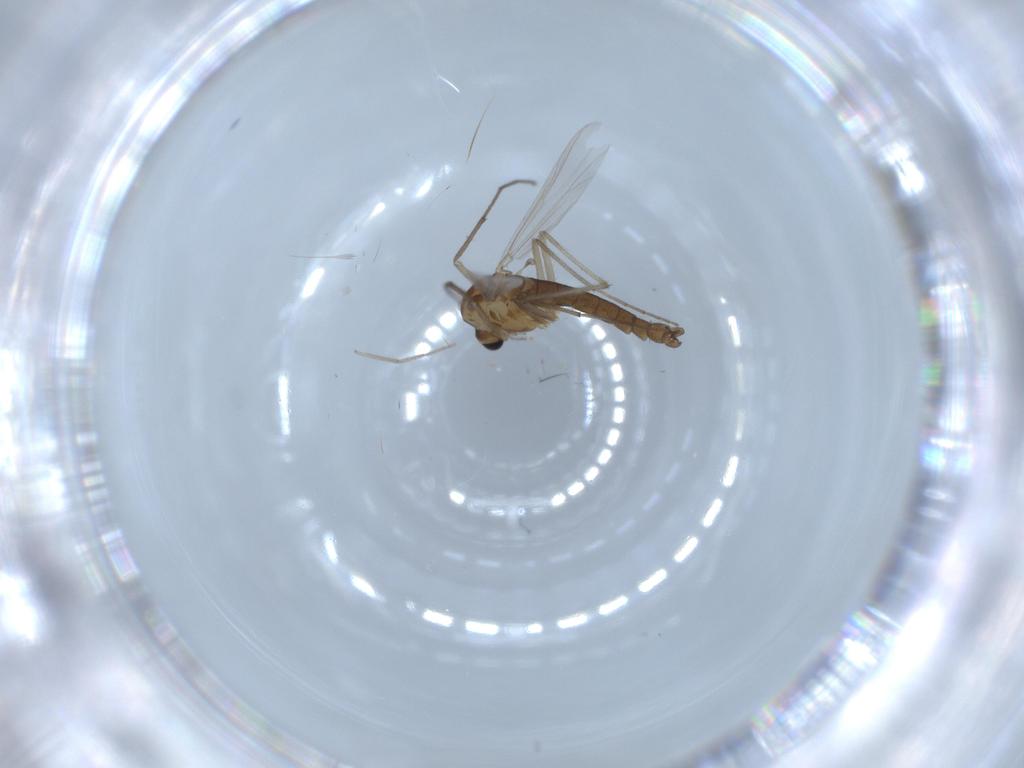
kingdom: Animalia
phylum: Arthropoda
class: Insecta
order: Diptera
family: Chironomidae
